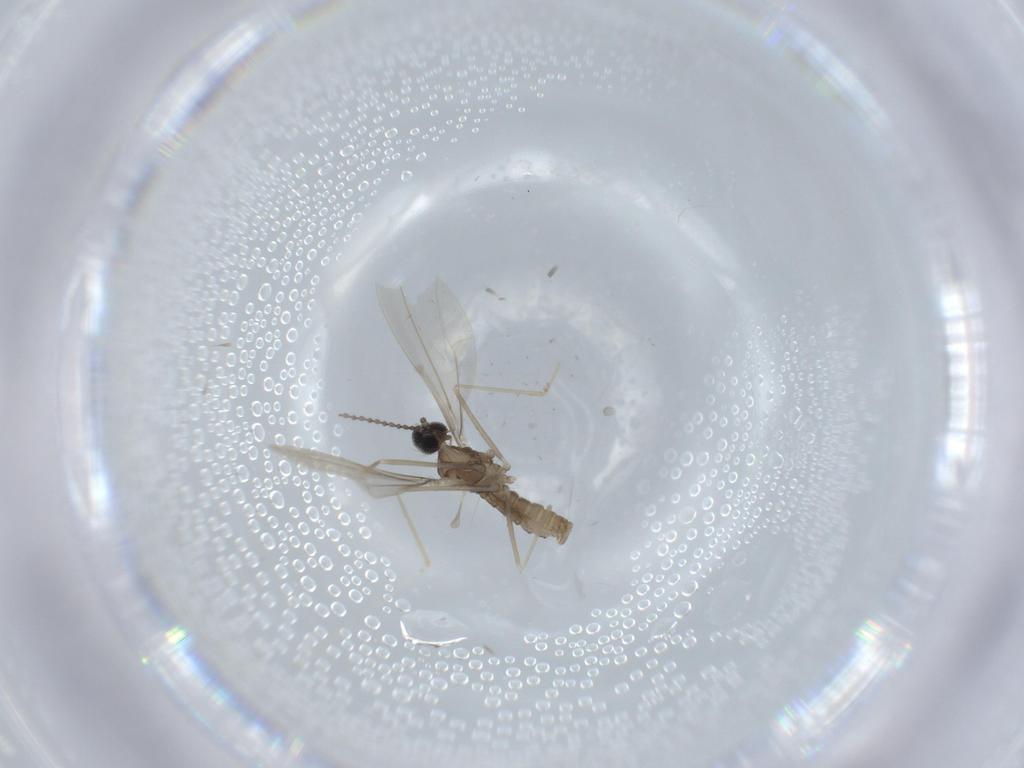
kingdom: Animalia
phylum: Arthropoda
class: Insecta
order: Diptera
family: Cecidomyiidae
